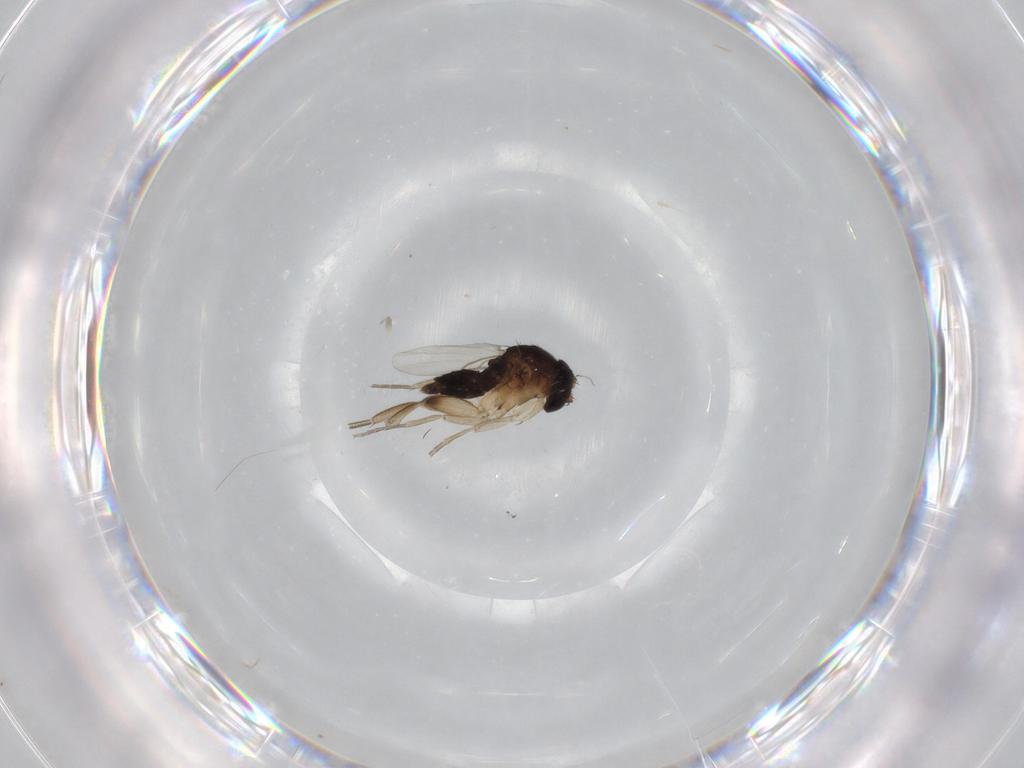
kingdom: Animalia
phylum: Arthropoda
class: Insecta
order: Diptera
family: Phoridae
